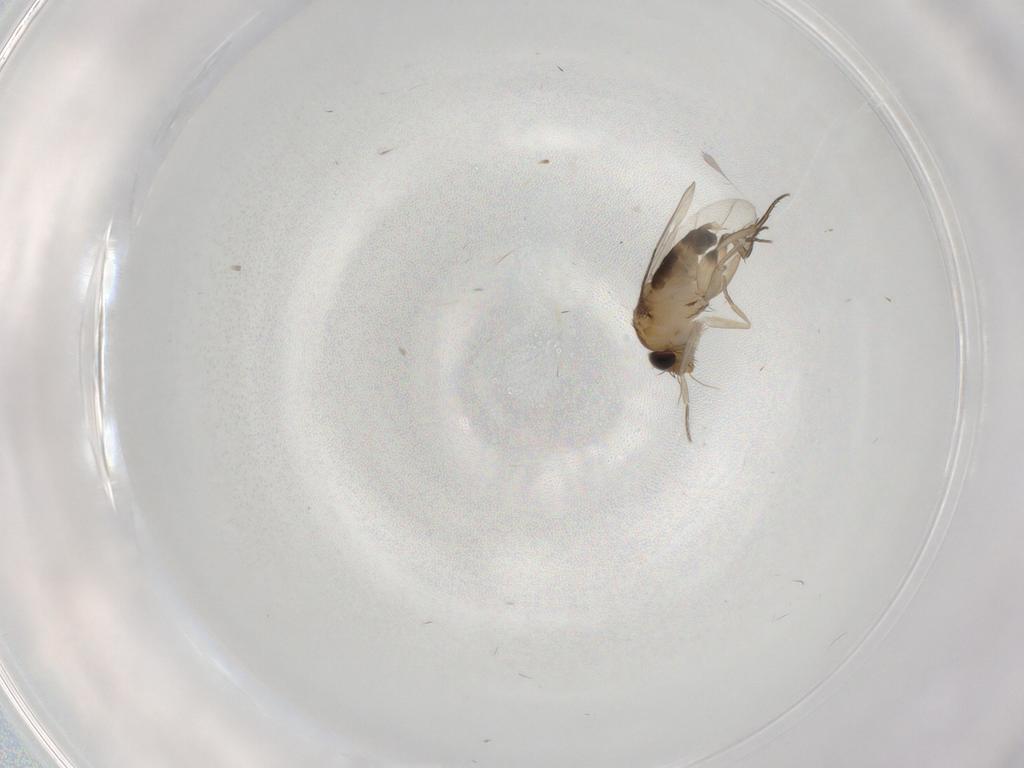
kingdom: Animalia
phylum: Arthropoda
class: Insecta
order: Diptera
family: Phoridae
